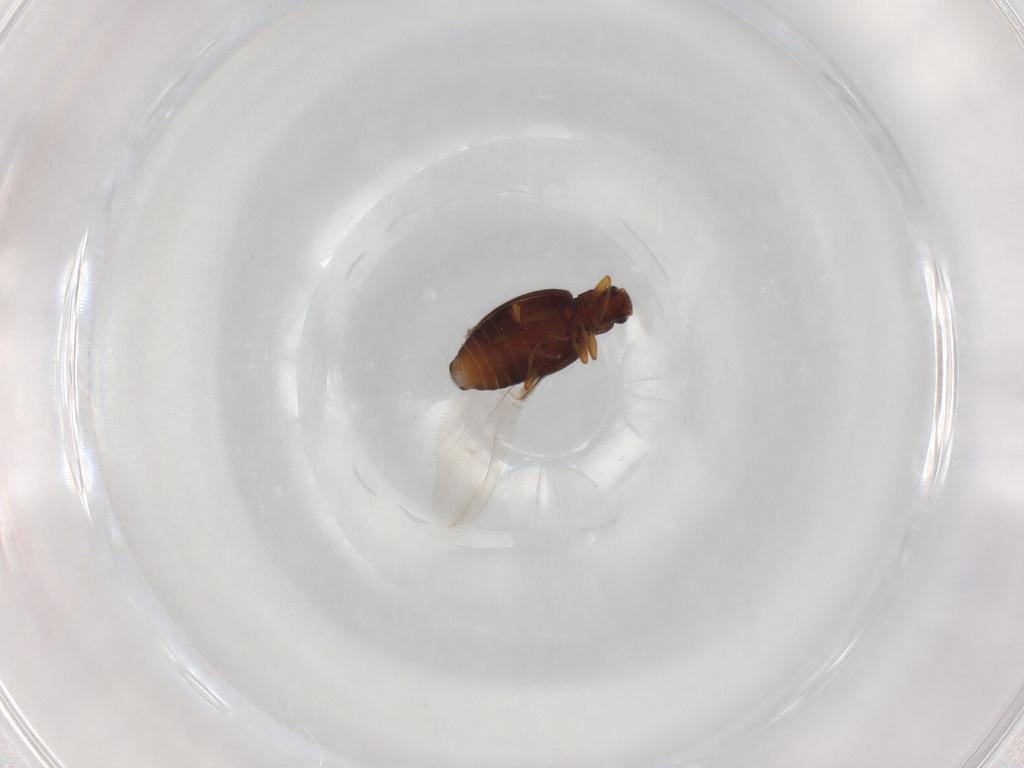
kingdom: Animalia
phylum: Arthropoda
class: Insecta
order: Coleoptera
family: Latridiidae
